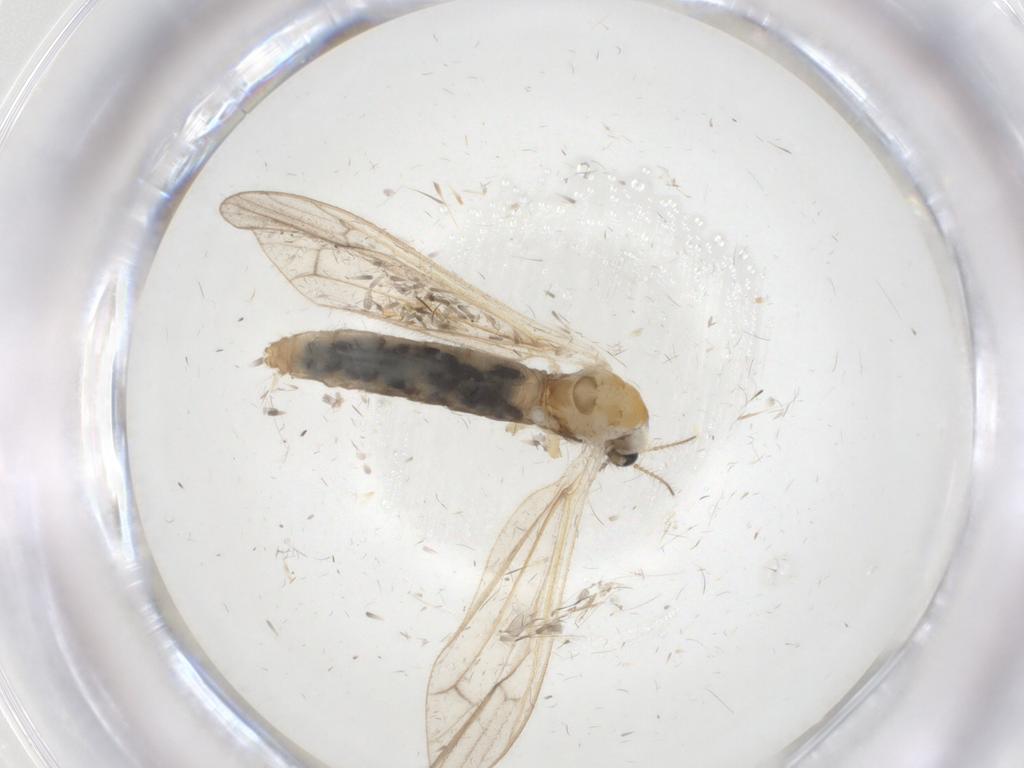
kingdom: Animalia
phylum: Arthropoda
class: Insecta
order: Diptera
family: Limoniidae
